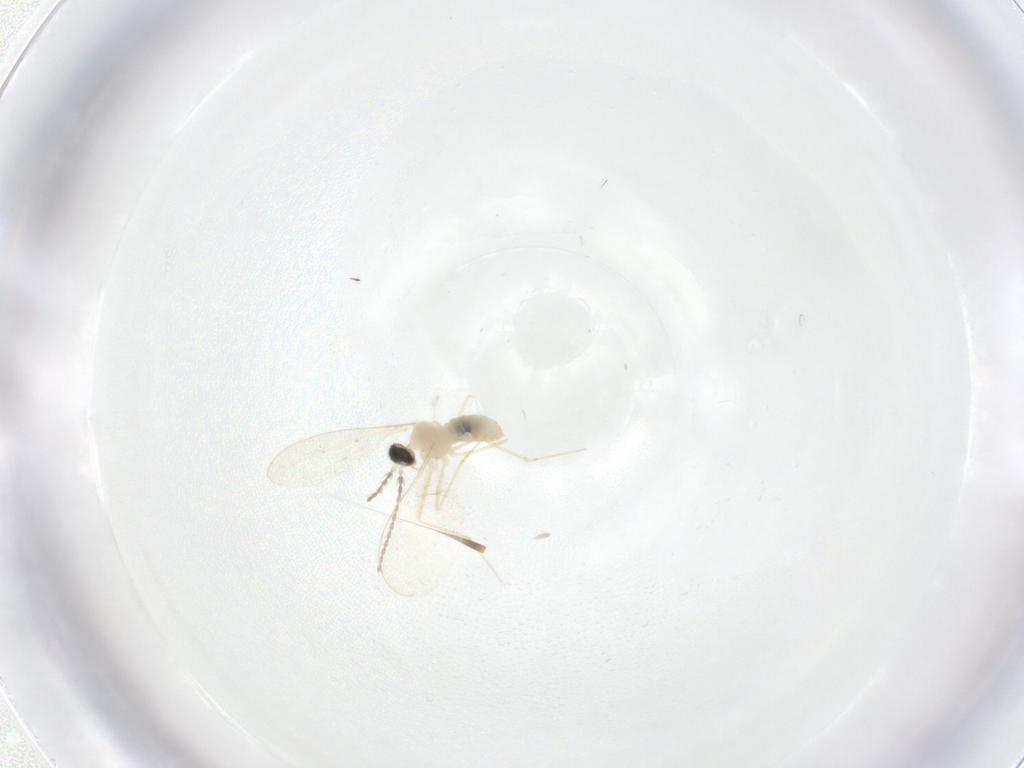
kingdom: Animalia
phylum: Arthropoda
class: Insecta
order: Diptera
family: Cecidomyiidae
